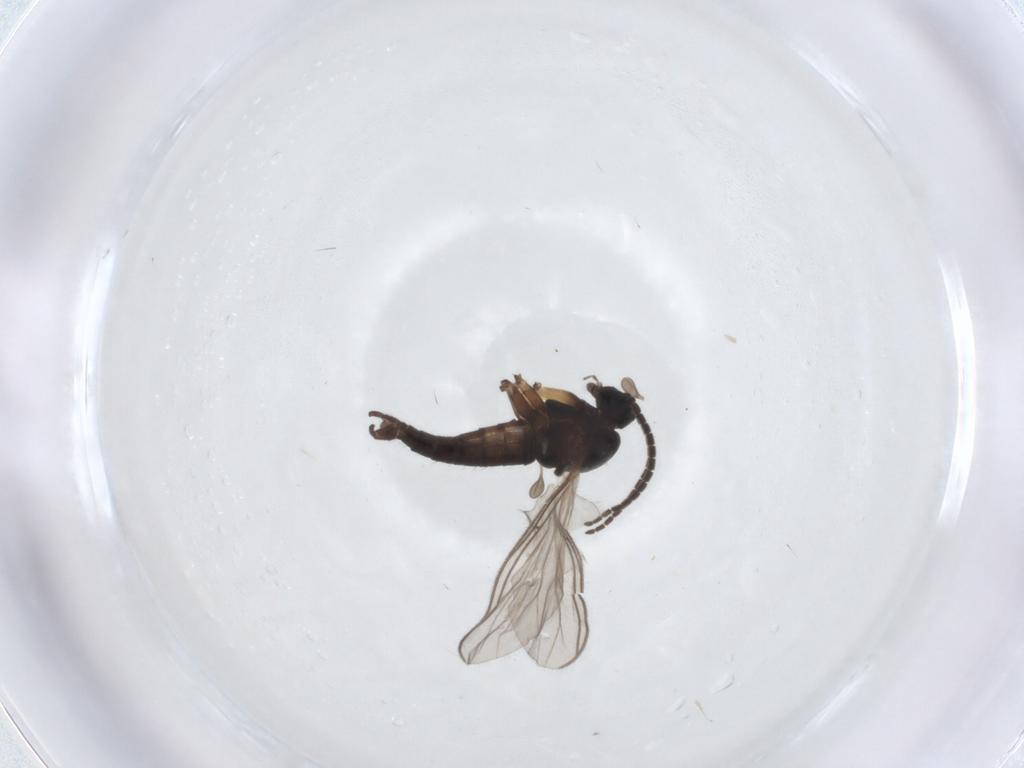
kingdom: Animalia
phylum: Arthropoda
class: Insecta
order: Diptera
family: Sciaridae
